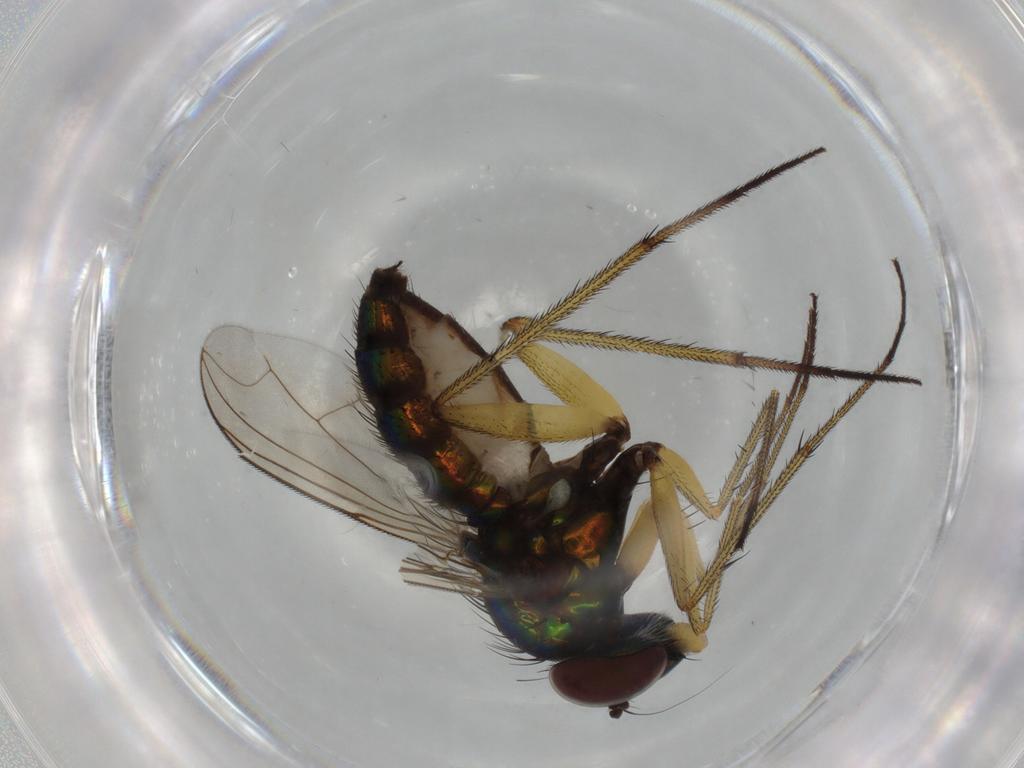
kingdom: Animalia
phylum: Arthropoda
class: Insecta
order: Diptera
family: Dolichopodidae
